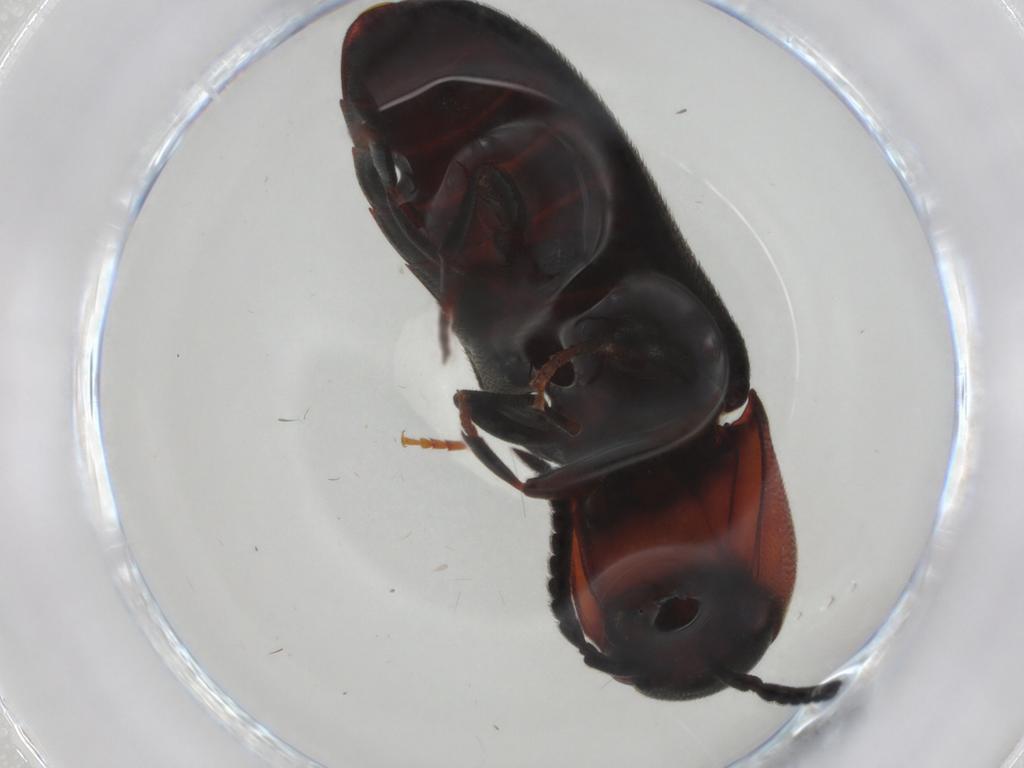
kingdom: Animalia
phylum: Arthropoda
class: Insecta
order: Coleoptera
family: Eucnemidae
